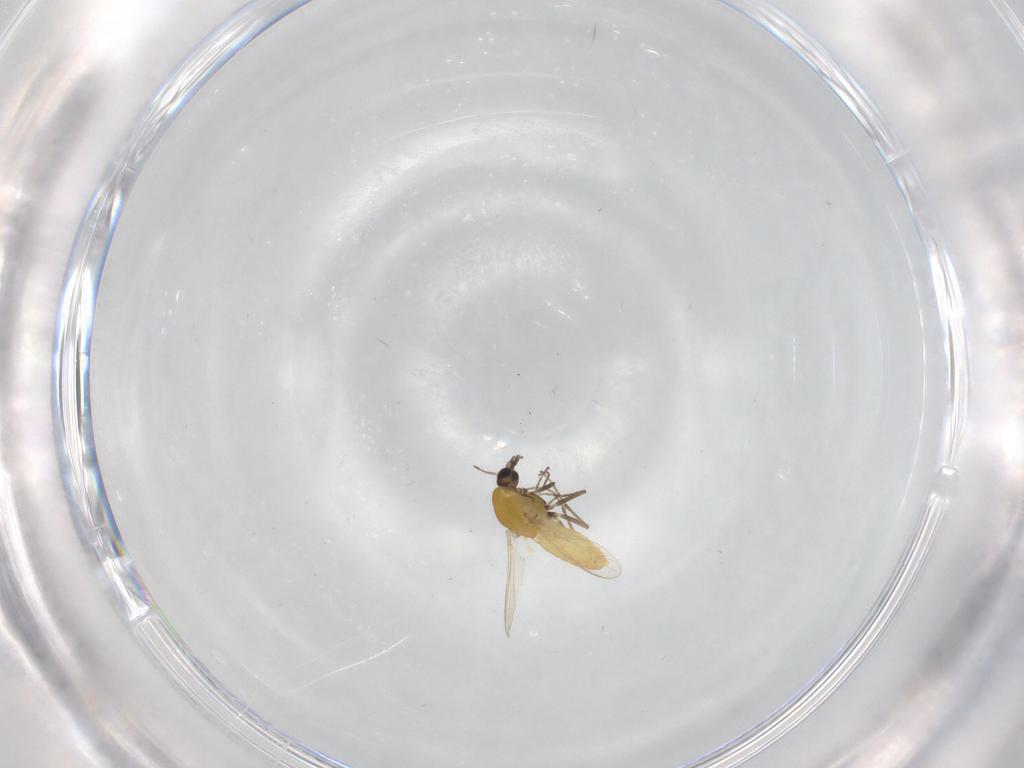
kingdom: Animalia
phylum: Arthropoda
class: Insecta
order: Diptera
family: Chironomidae
